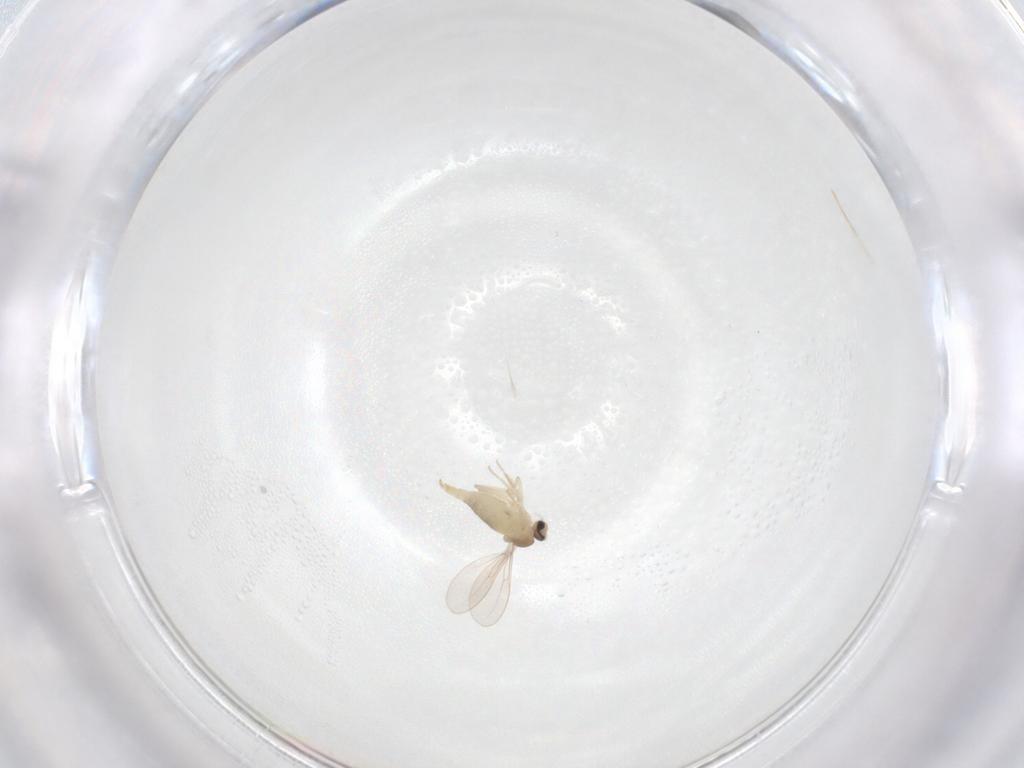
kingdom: Animalia
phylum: Arthropoda
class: Insecta
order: Diptera
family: Cecidomyiidae
